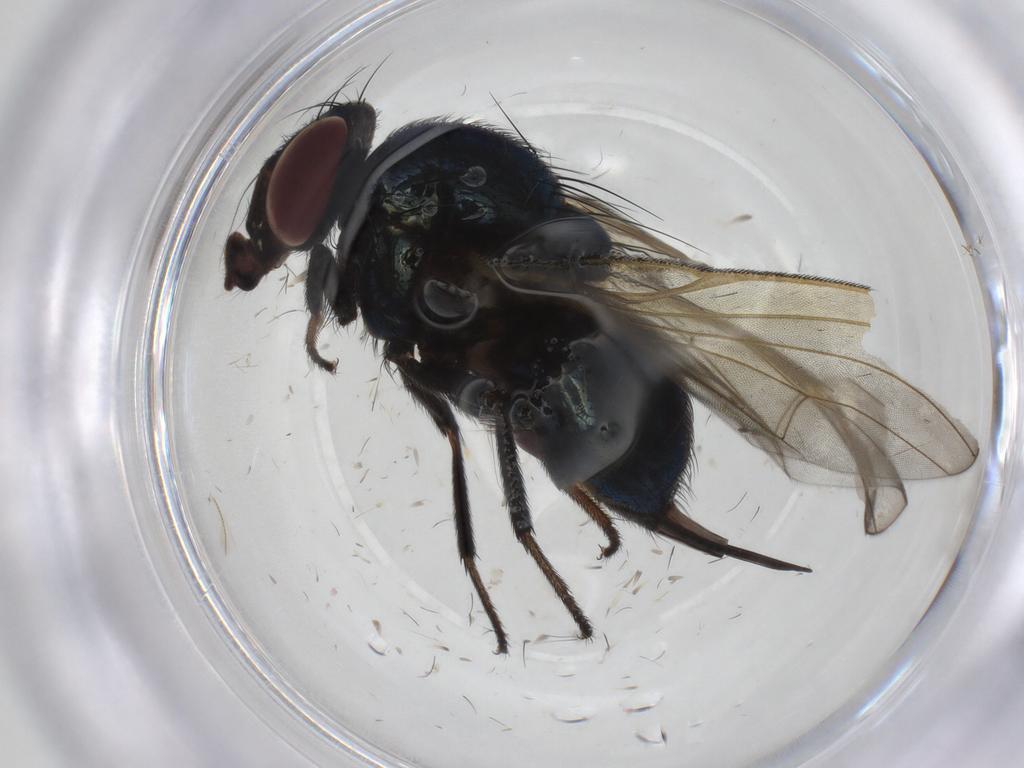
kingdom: Animalia
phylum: Arthropoda
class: Insecta
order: Diptera
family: Lonchaeidae
